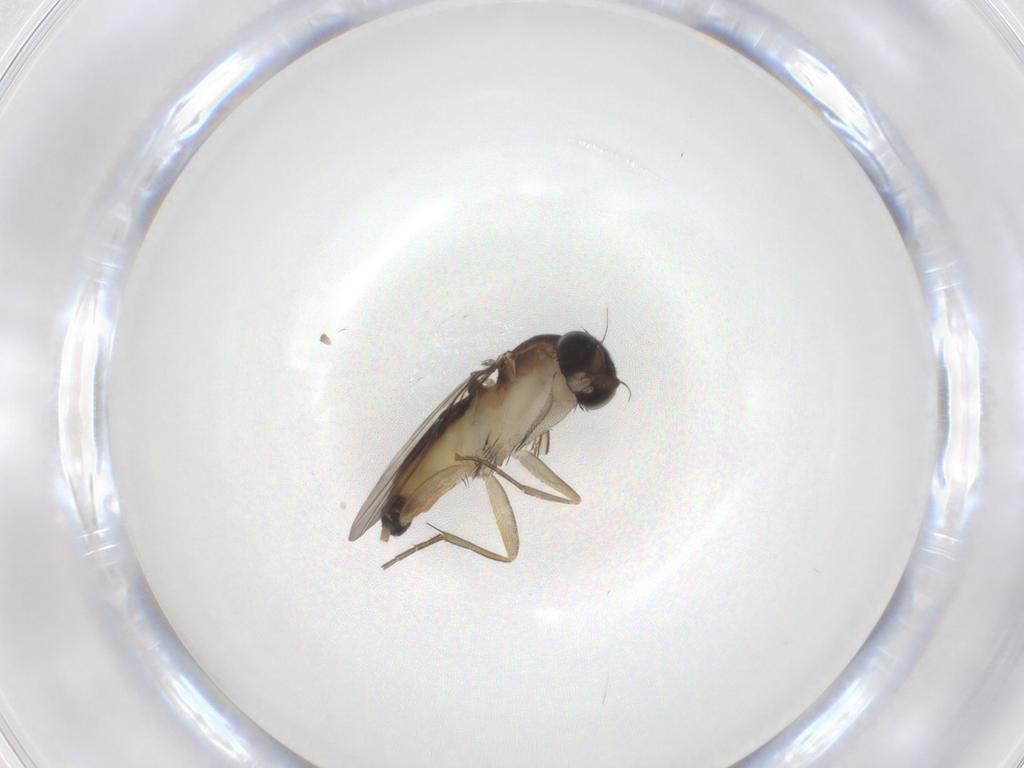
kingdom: Animalia
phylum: Arthropoda
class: Insecta
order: Diptera
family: Phoridae
